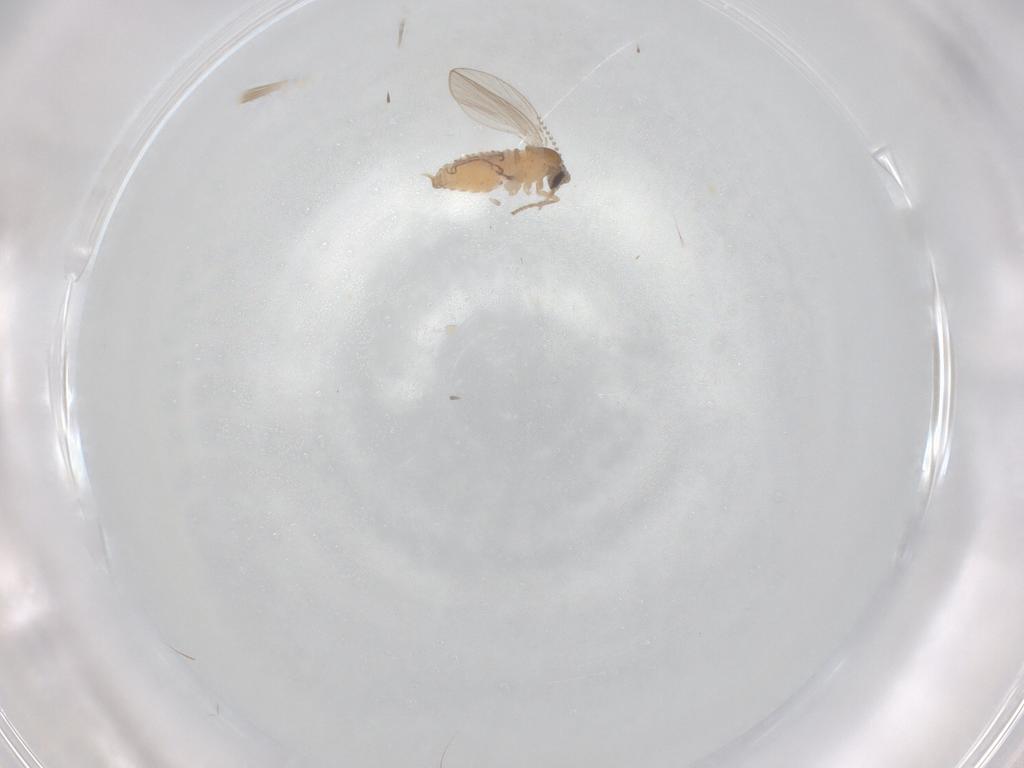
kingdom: Animalia
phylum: Arthropoda
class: Insecta
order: Diptera
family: Psychodidae
